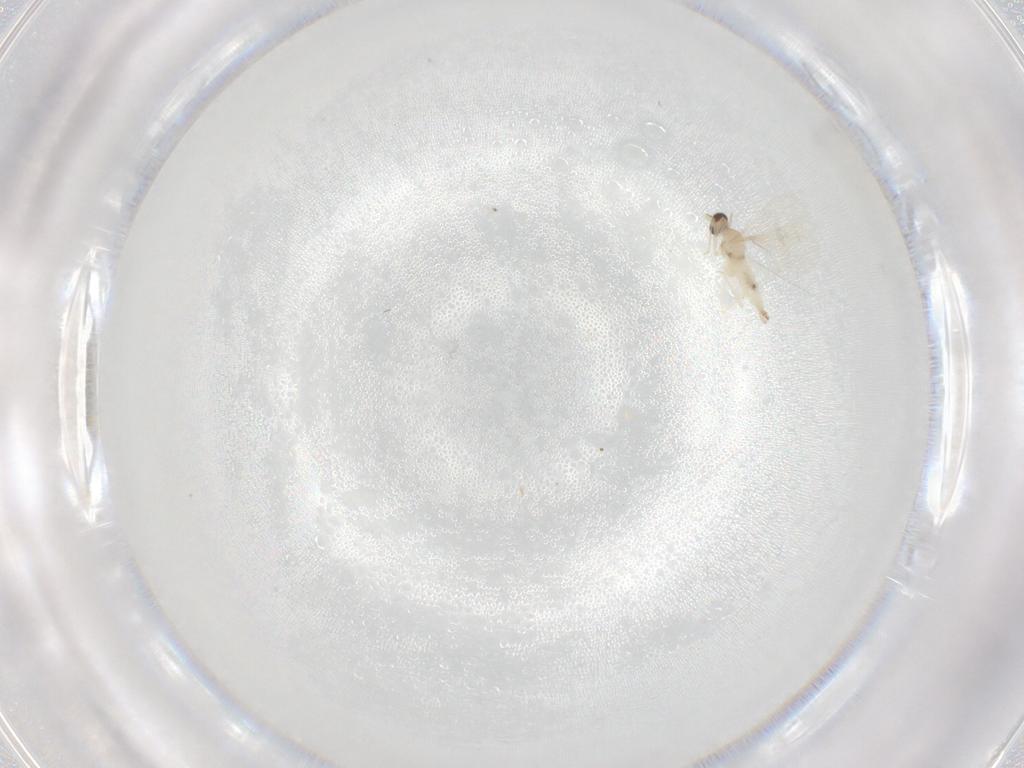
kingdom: Animalia
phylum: Arthropoda
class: Insecta
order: Diptera
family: Cecidomyiidae
